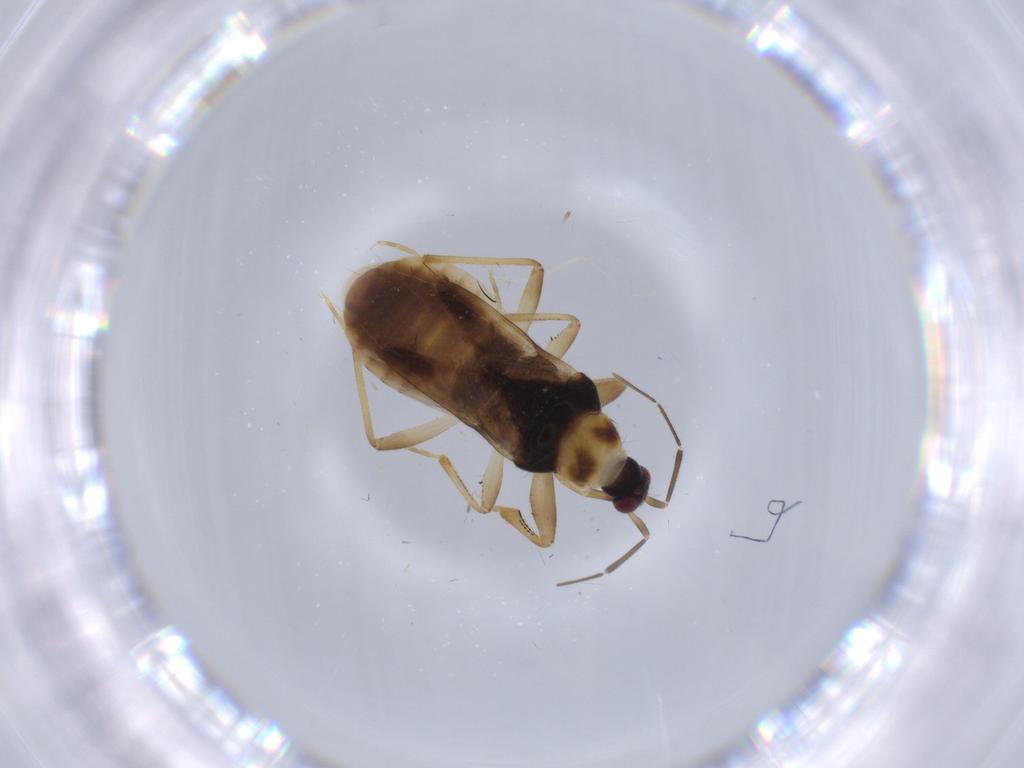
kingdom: Animalia
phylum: Arthropoda
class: Insecta
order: Hemiptera
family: Nabidae
